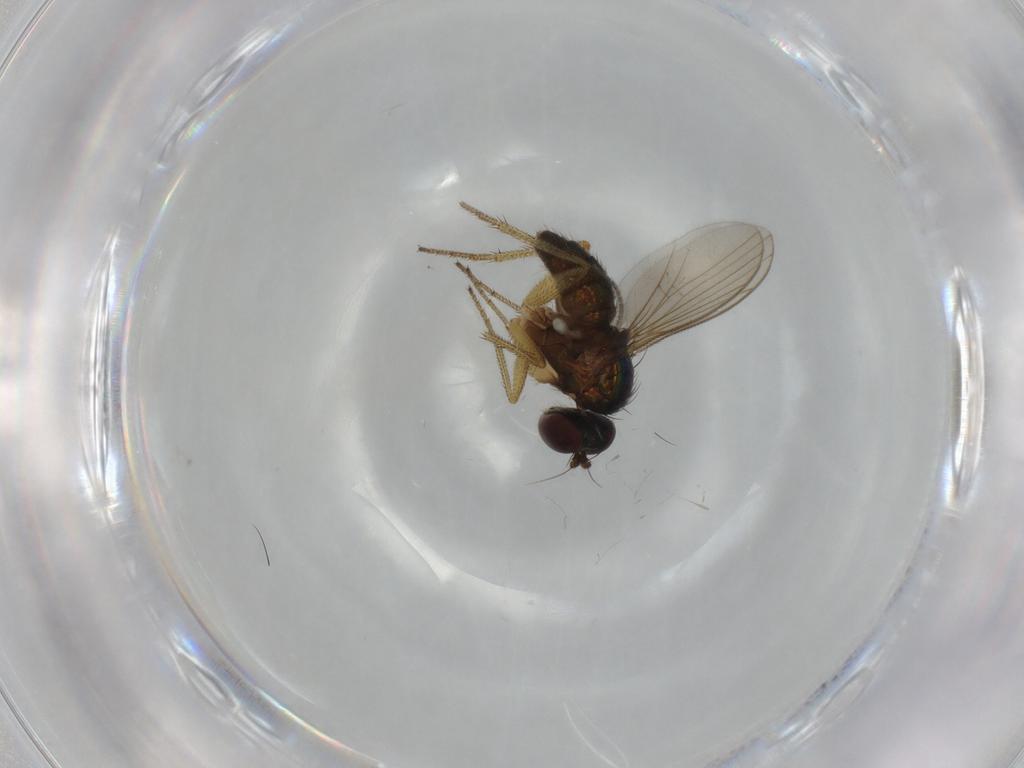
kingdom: Animalia
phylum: Arthropoda
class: Insecta
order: Diptera
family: Sciaridae
